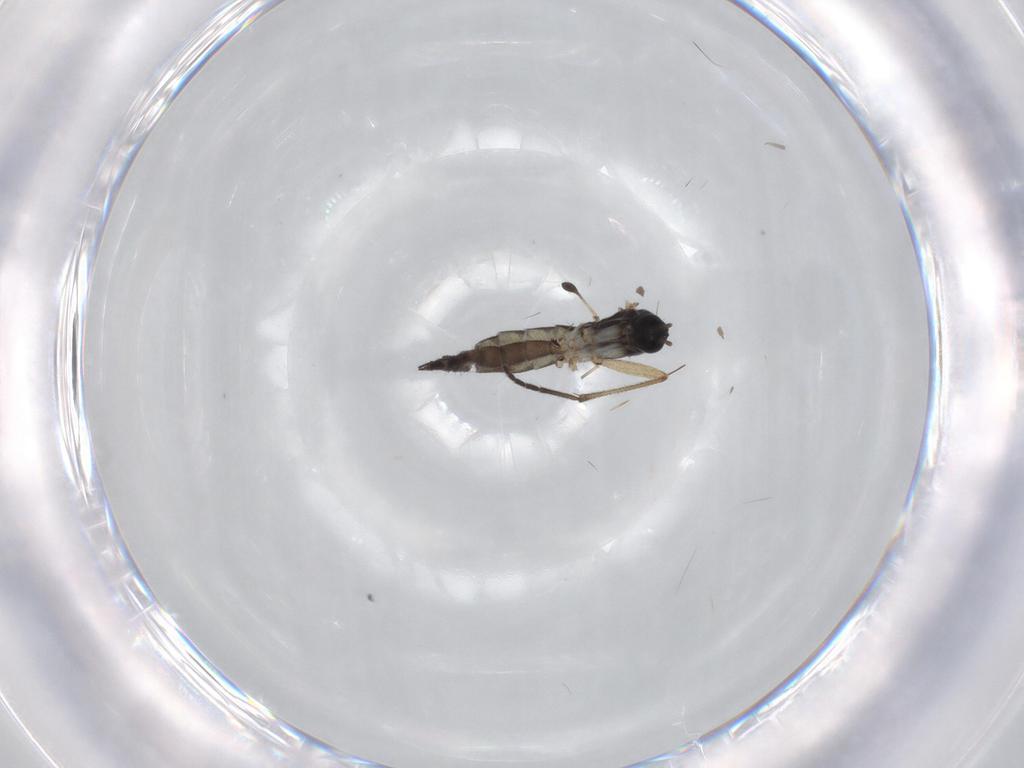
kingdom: Animalia
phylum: Arthropoda
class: Insecta
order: Diptera
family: Sciaridae
